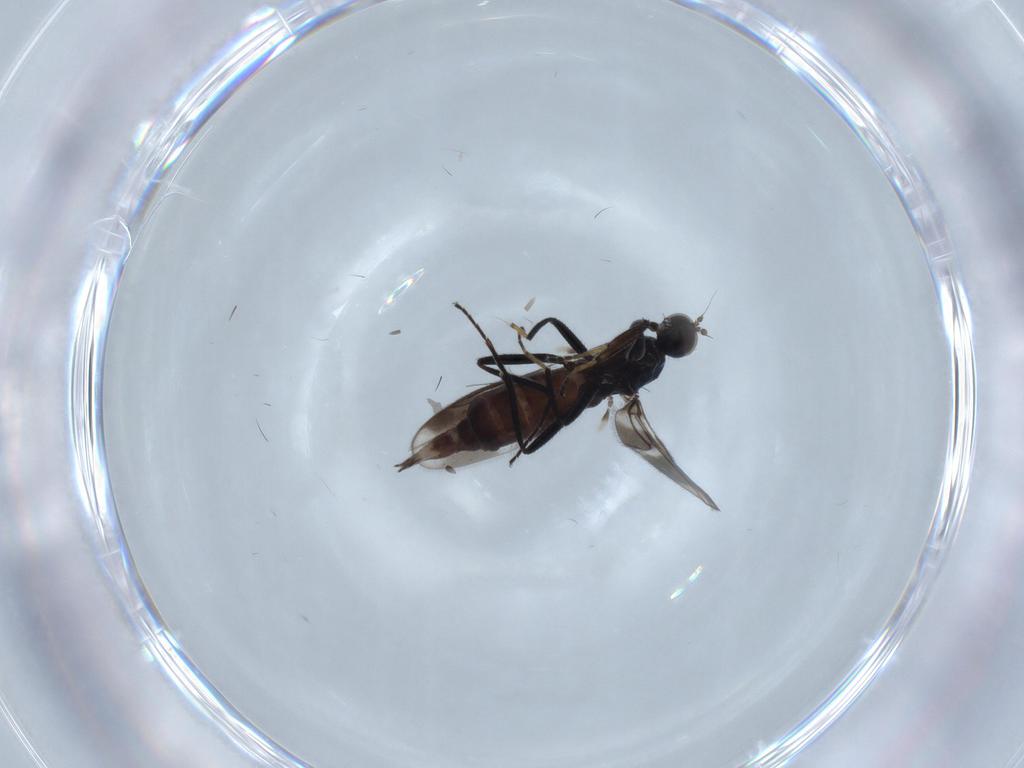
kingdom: Animalia
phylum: Arthropoda
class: Insecta
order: Diptera
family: Hybotidae
